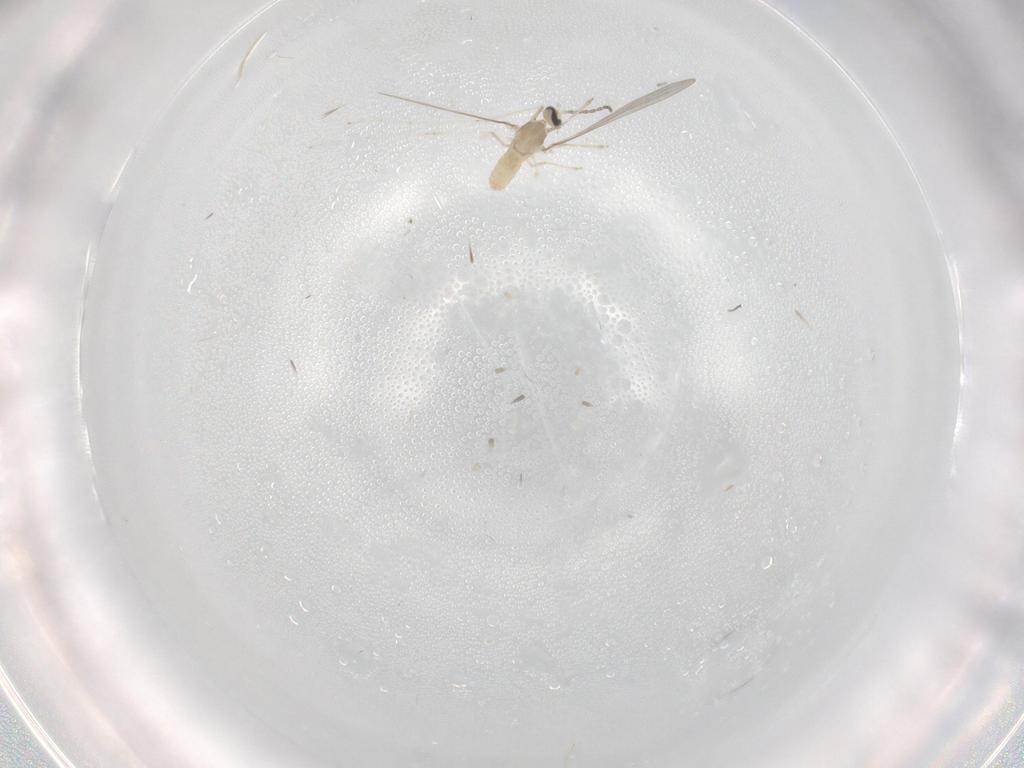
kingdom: Animalia
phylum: Arthropoda
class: Insecta
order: Diptera
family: Cecidomyiidae
